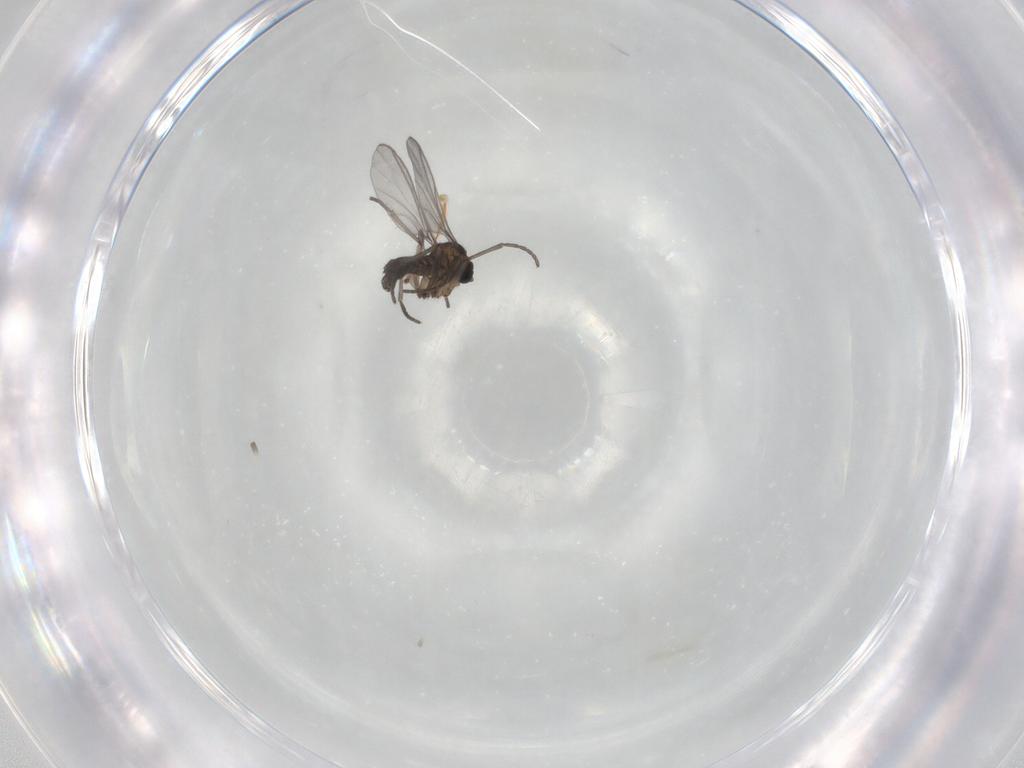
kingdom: Animalia
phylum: Arthropoda
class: Insecta
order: Diptera
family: Sciaridae
